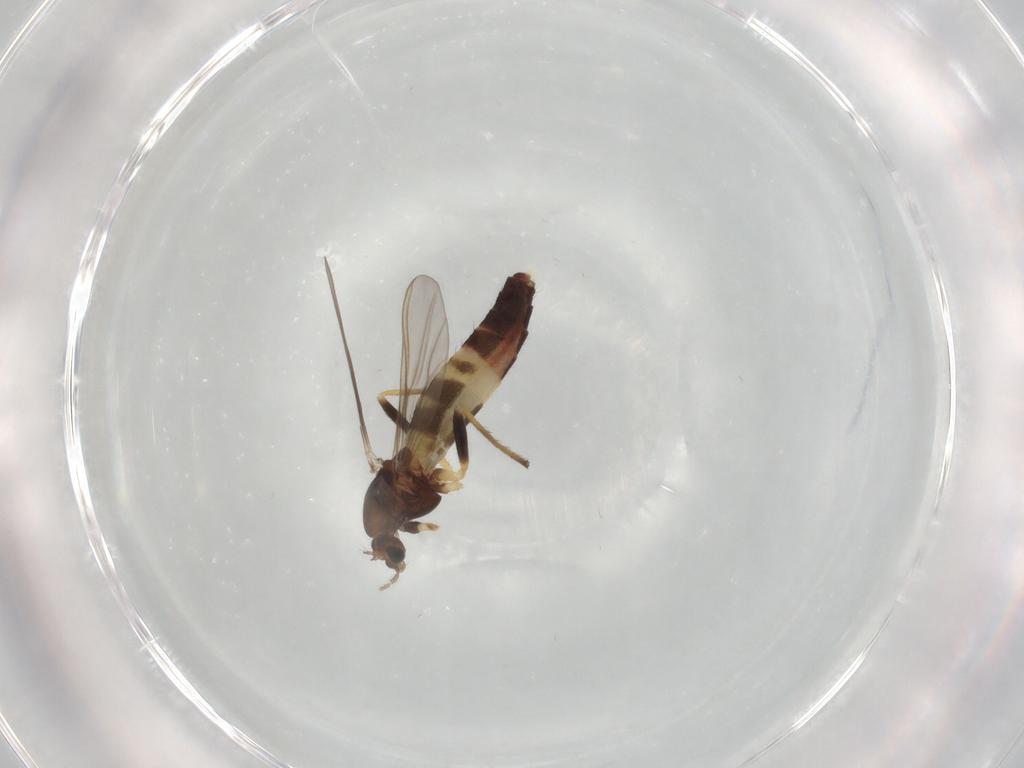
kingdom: Animalia
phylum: Arthropoda
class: Insecta
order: Diptera
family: Chironomidae
